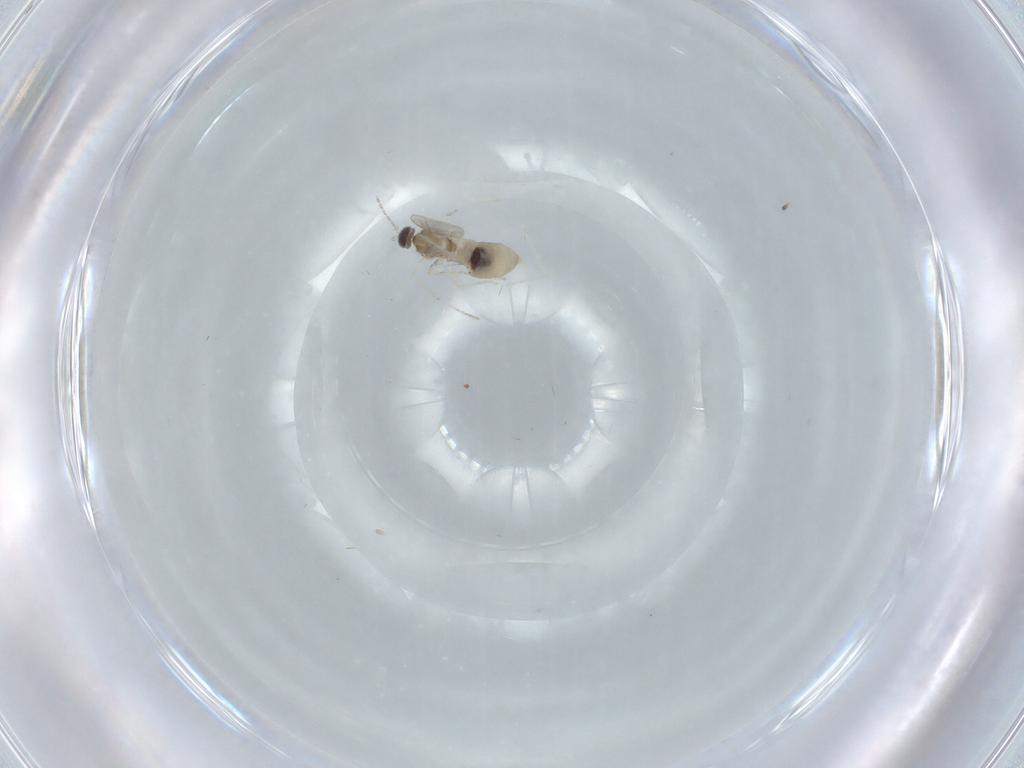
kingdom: Animalia
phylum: Arthropoda
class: Insecta
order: Diptera
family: Cecidomyiidae
